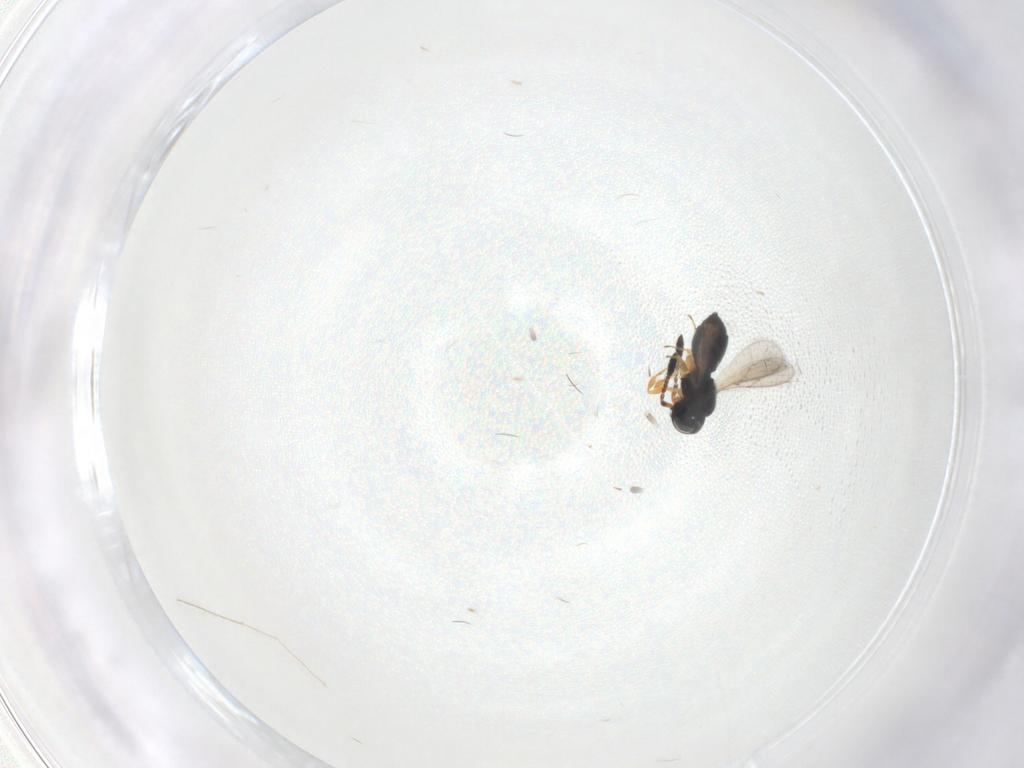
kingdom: Animalia
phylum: Arthropoda
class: Insecta
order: Hymenoptera
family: Scelionidae
